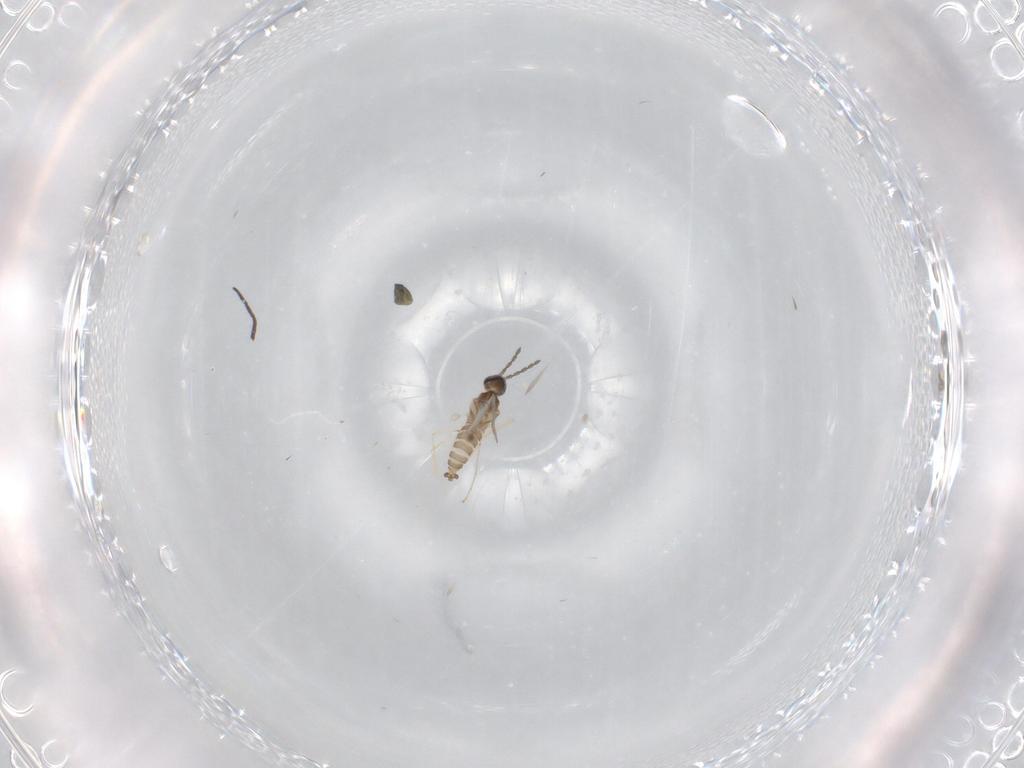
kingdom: Animalia
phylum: Arthropoda
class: Insecta
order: Diptera
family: Cecidomyiidae
